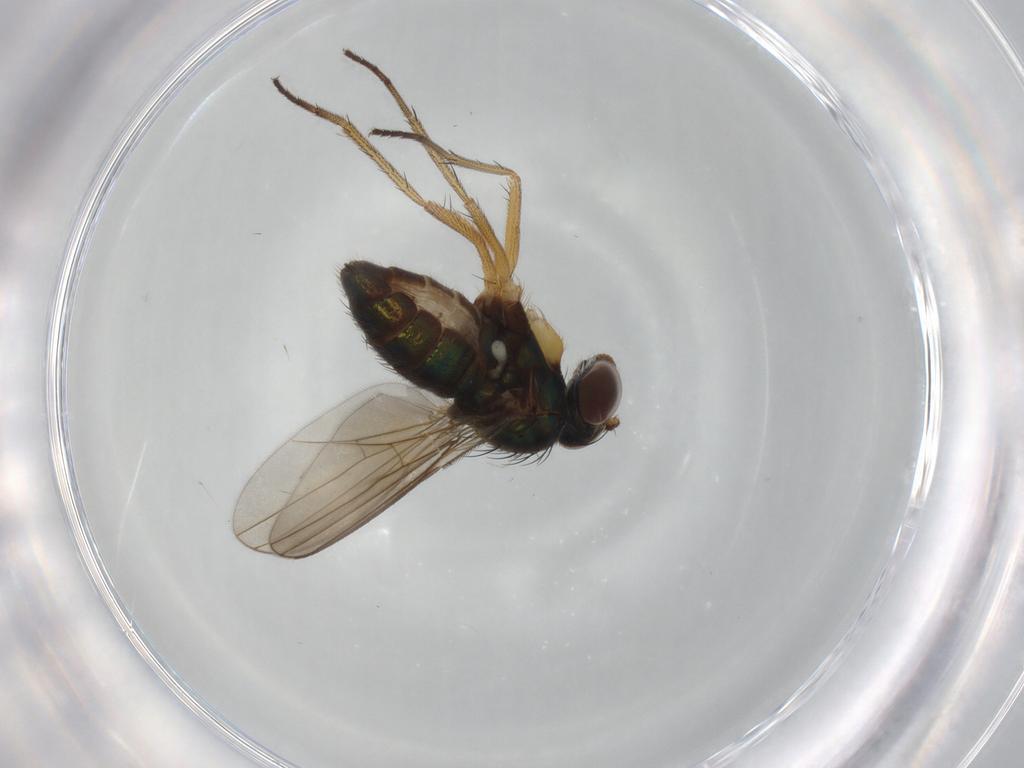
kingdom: Animalia
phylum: Arthropoda
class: Insecta
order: Diptera
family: Dolichopodidae
